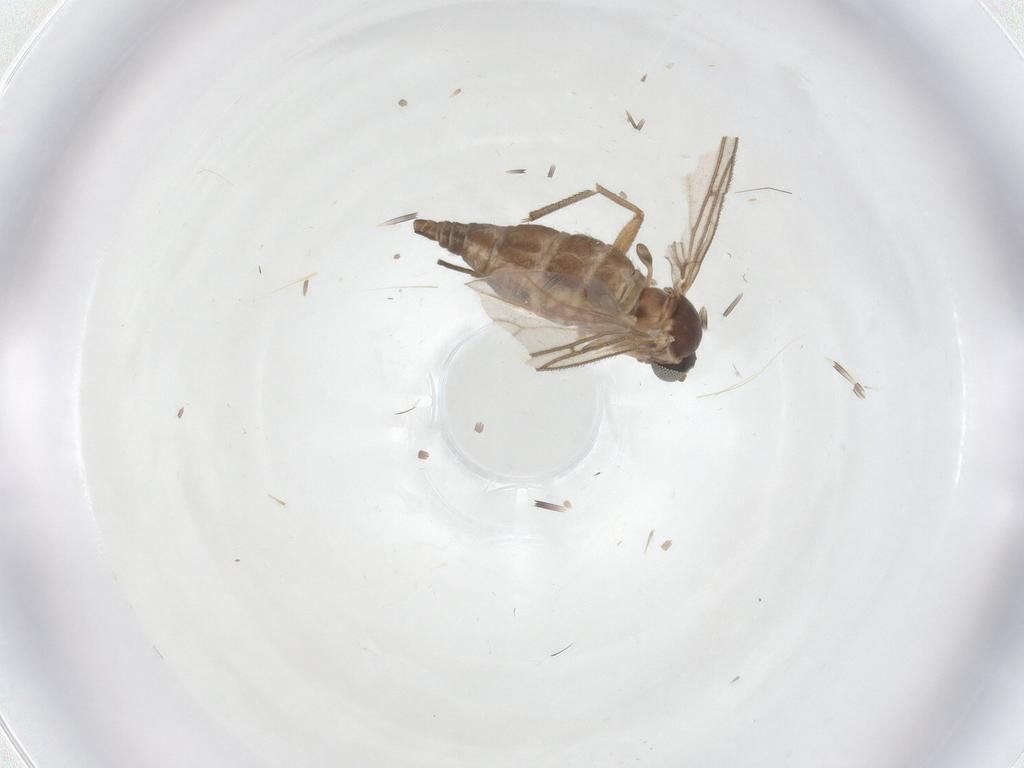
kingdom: Animalia
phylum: Arthropoda
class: Insecta
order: Diptera
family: Sciaridae
